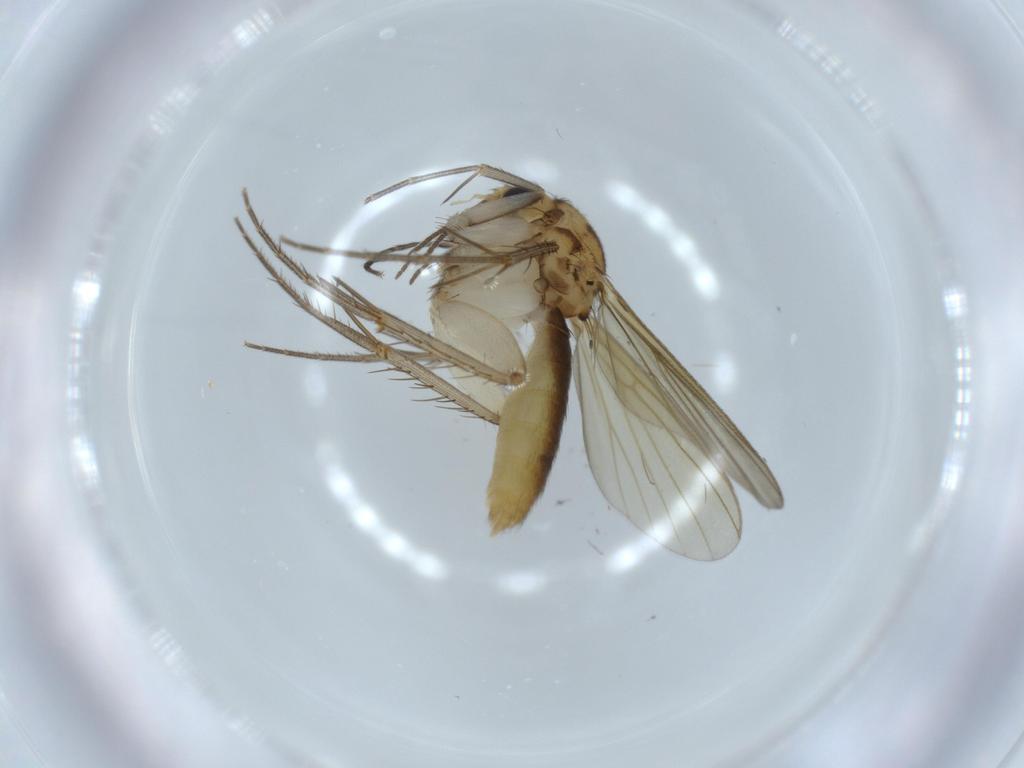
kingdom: Animalia
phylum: Arthropoda
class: Insecta
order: Diptera
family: Mycetophilidae
